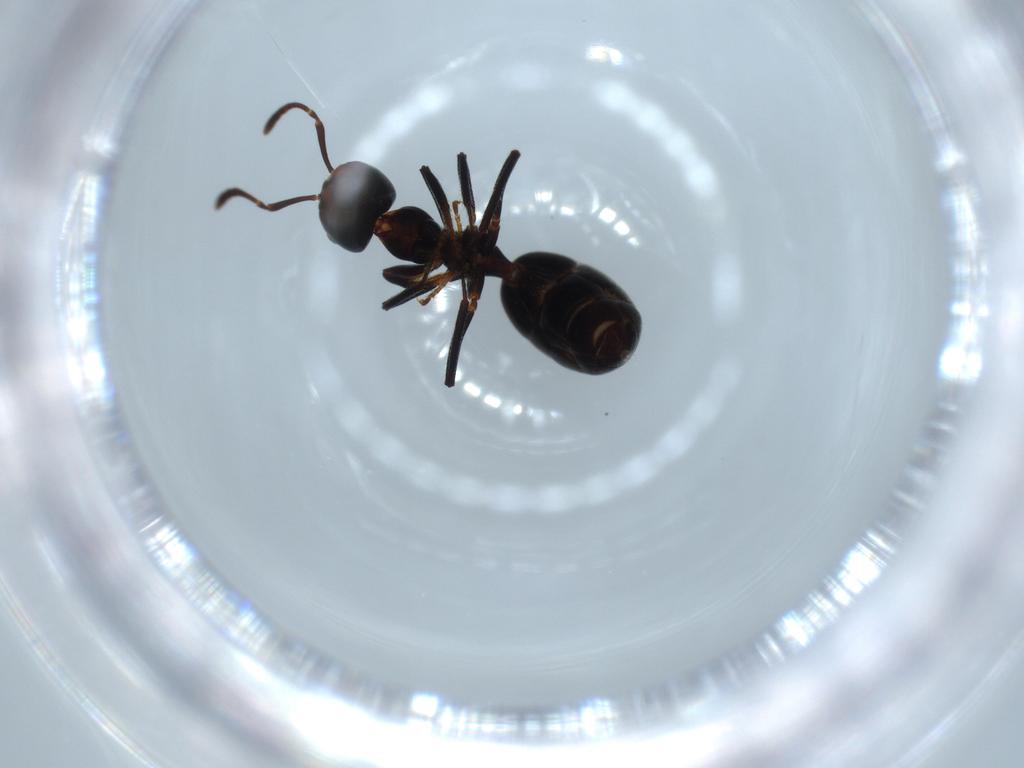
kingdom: Animalia
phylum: Arthropoda
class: Insecta
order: Hymenoptera
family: Formicidae
